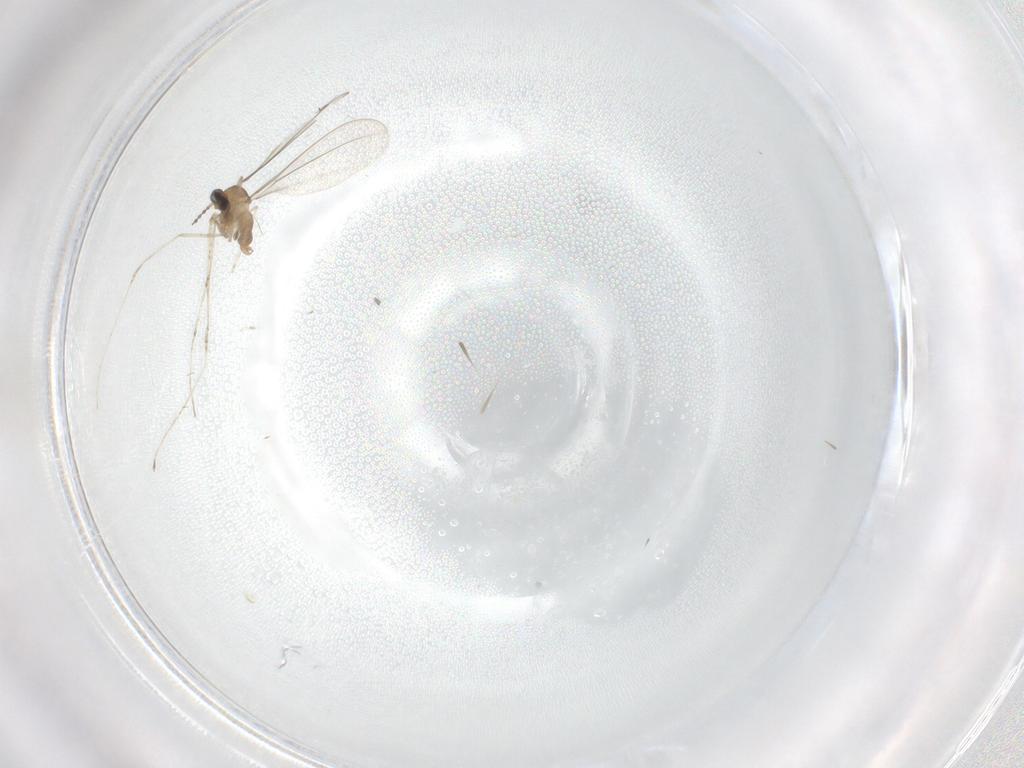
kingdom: Animalia
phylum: Arthropoda
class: Insecta
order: Diptera
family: Cecidomyiidae
